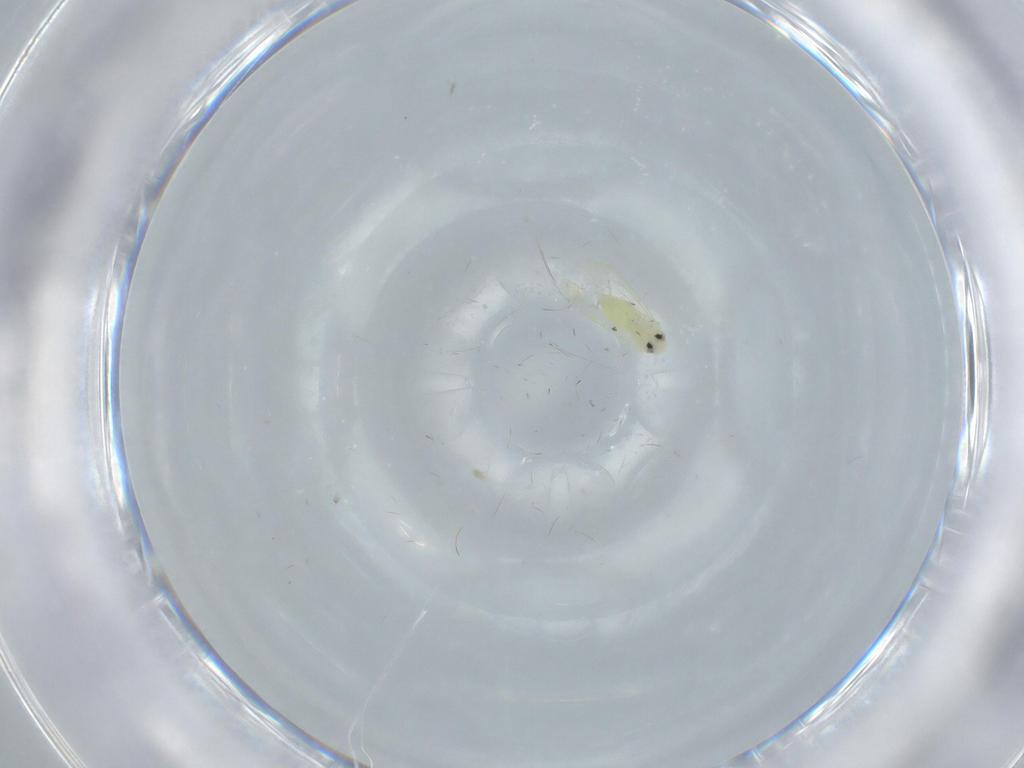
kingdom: Animalia
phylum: Arthropoda
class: Insecta
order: Hemiptera
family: Aleyrodidae
